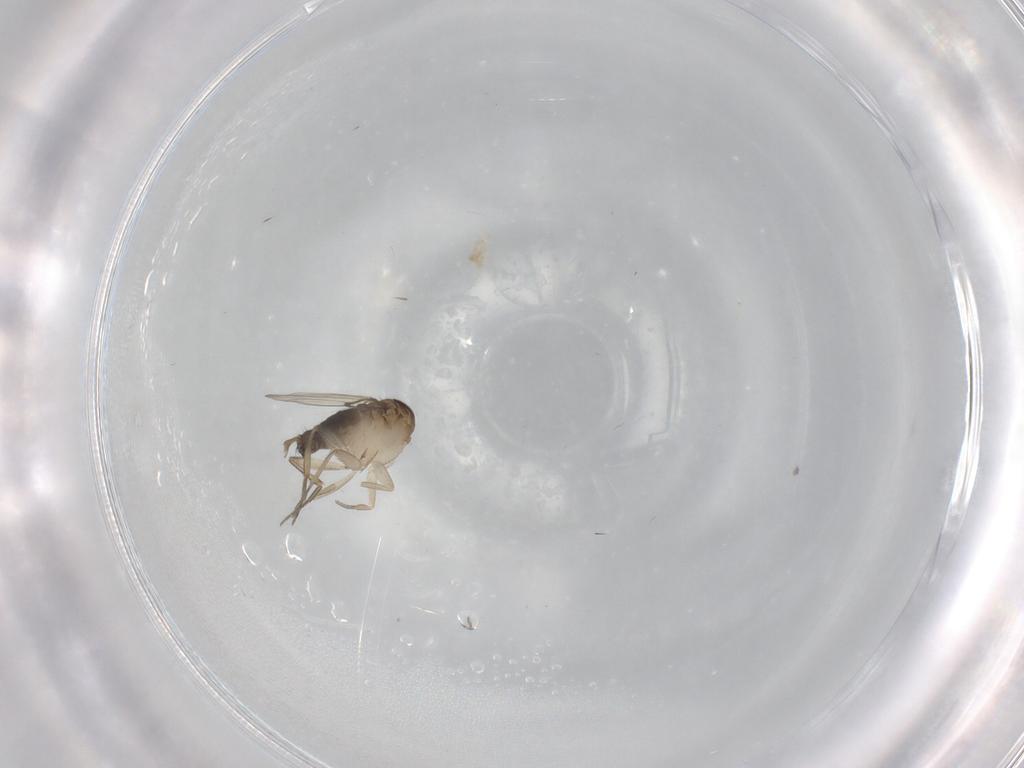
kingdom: Animalia
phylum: Arthropoda
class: Insecta
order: Diptera
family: Phoridae
